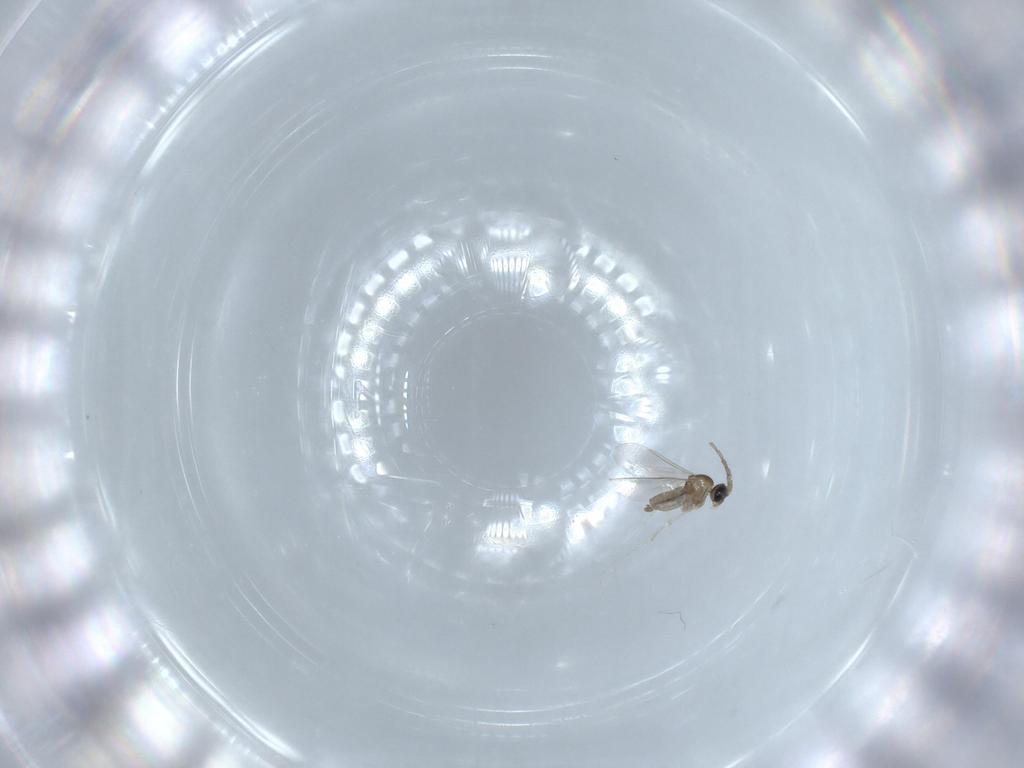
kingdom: Animalia
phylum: Arthropoda
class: Insecta
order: Diptera
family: Cecidomyiidae
